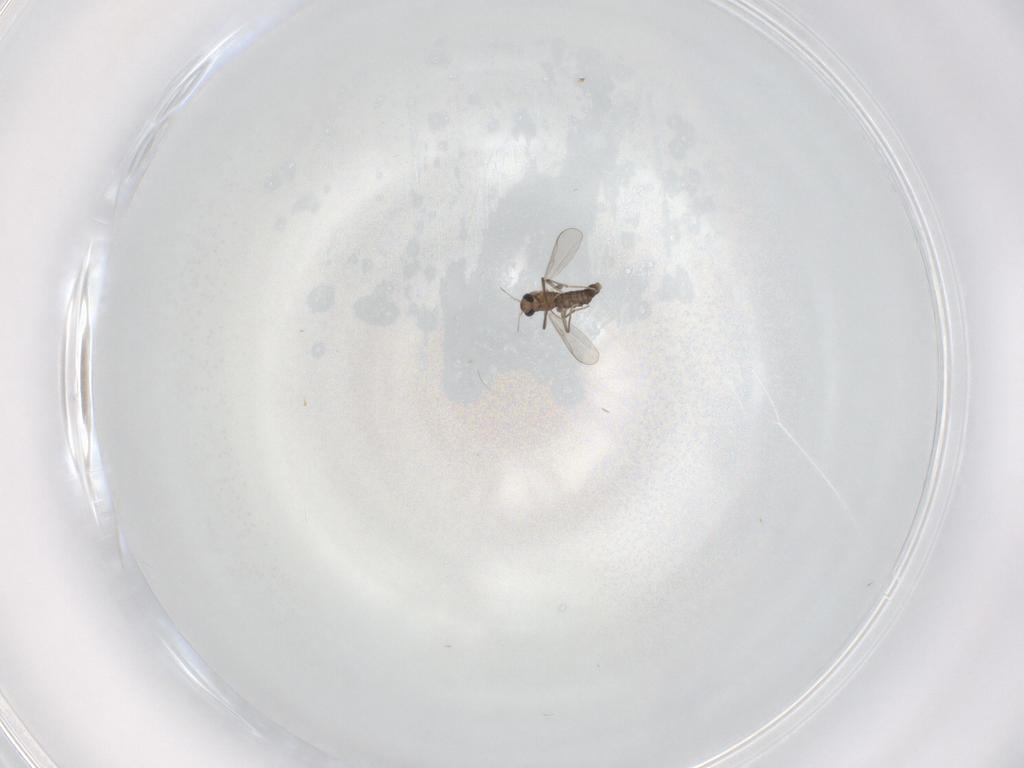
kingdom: Animalia
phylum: Arthropoda
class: Insecta
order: Diptera
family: Chironomidae
